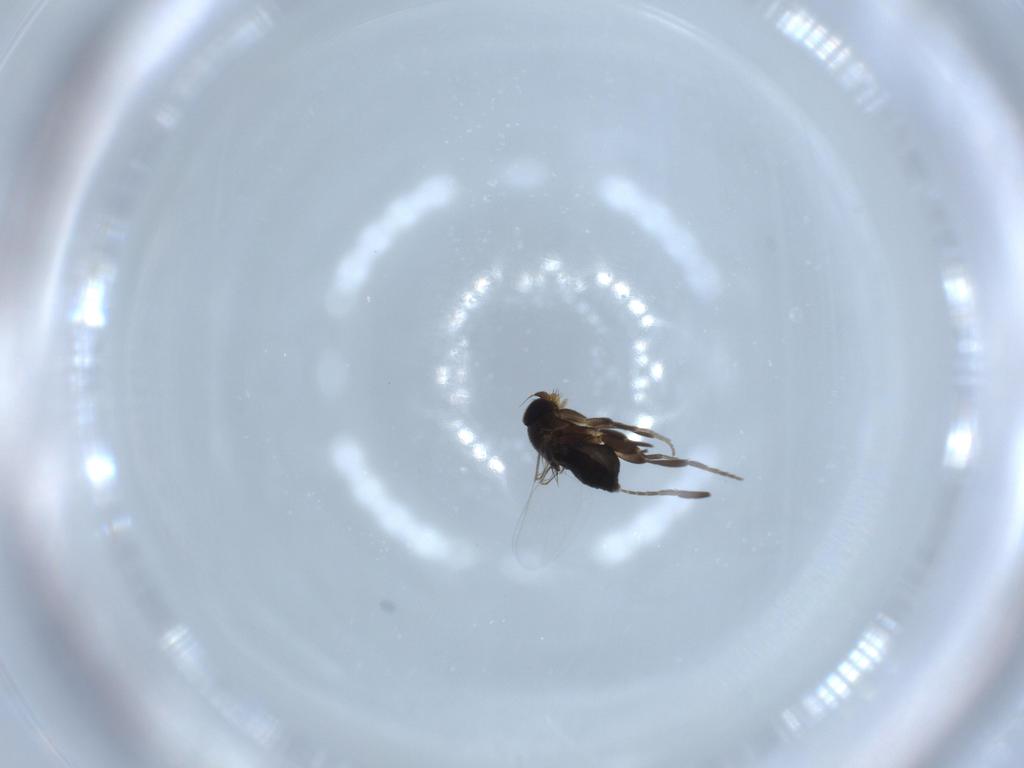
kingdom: Animalia
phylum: Arthropoda
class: Insecta
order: Diptera
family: Phoridae
